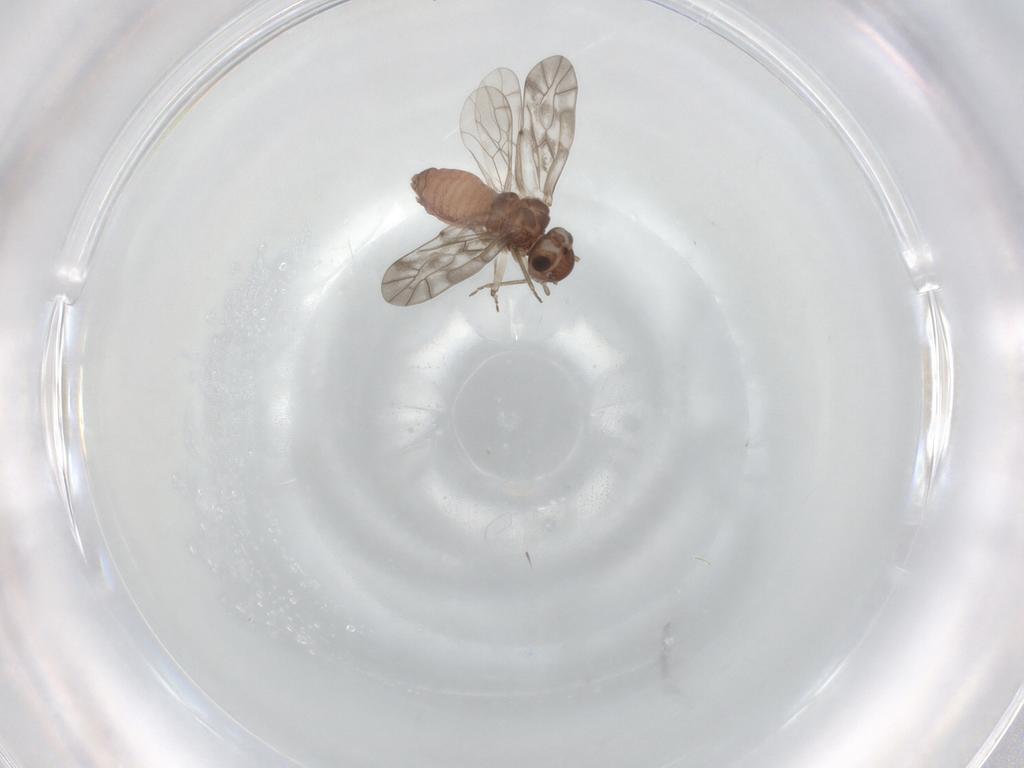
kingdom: Animalia
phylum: Arthropoda
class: Insecta
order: Psocodea
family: Peripsocidae
